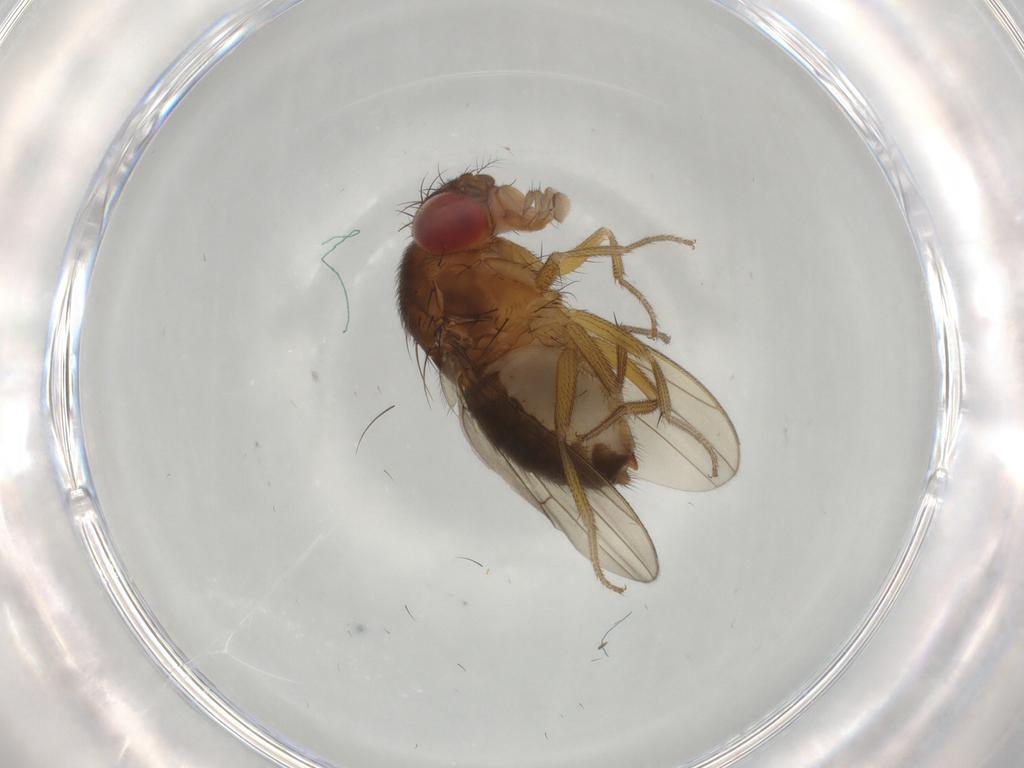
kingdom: Animalia
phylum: Arthropoda
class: Insecta
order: Diptera
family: Drosophilidae
